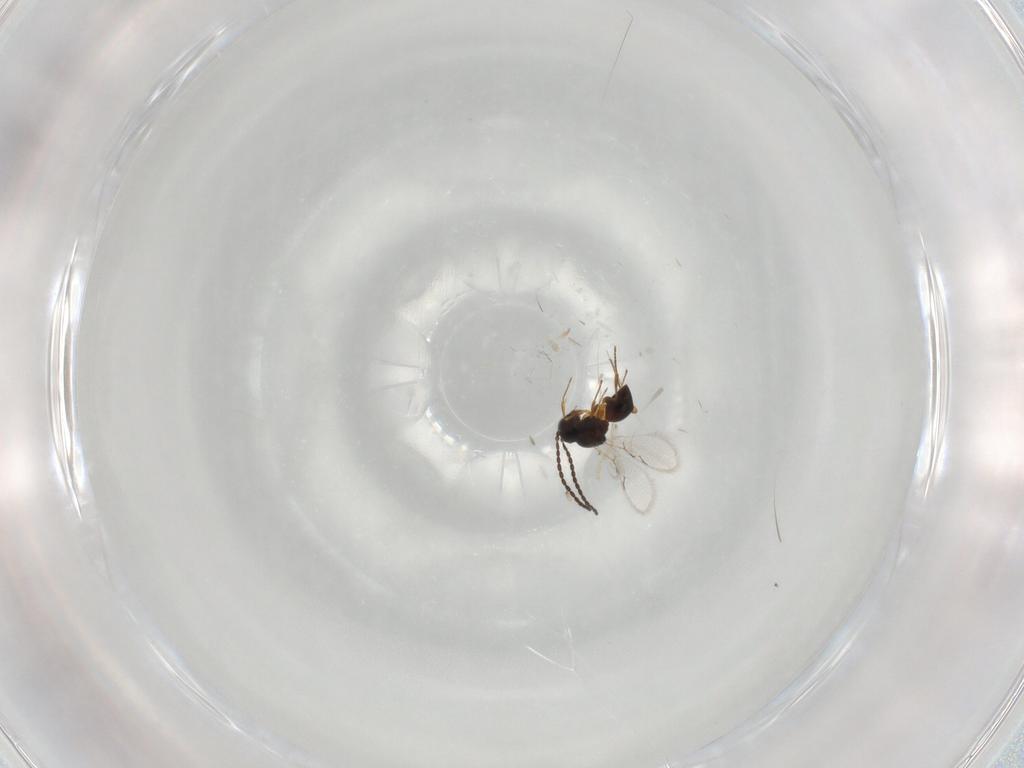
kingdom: Animalia
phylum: Arthropoda
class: Insecta
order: Hymenoptera
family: Figitidae
